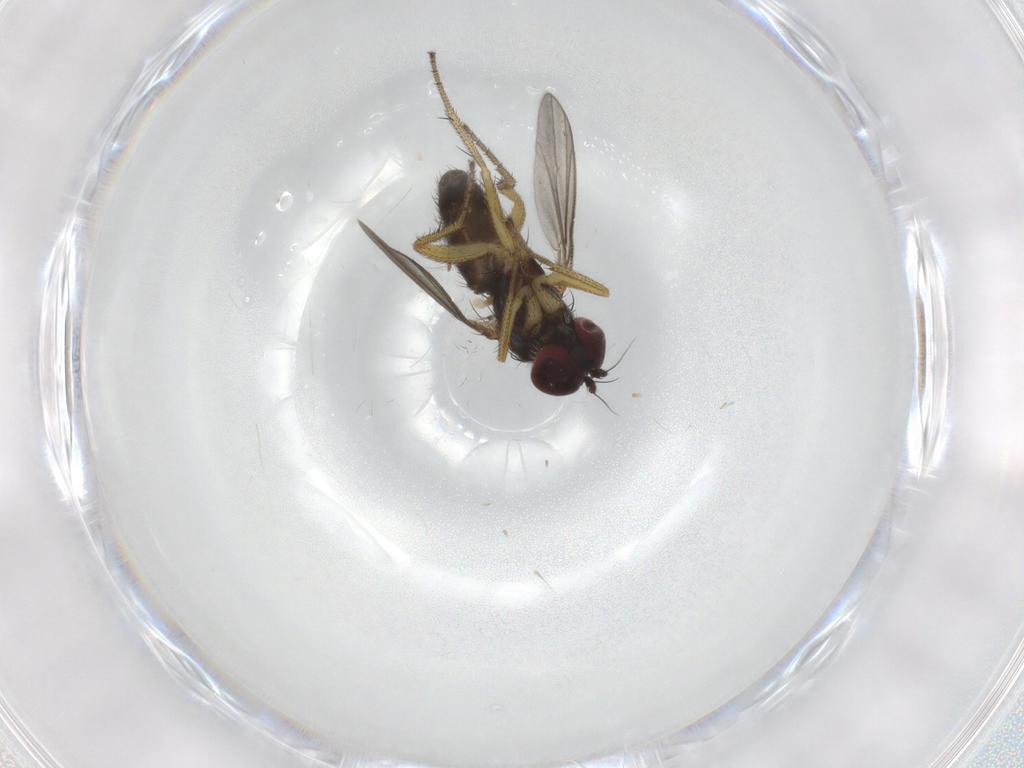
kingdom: Animalia
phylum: Arthropoda
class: Insecta
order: Diptera
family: Dolichopodidae
